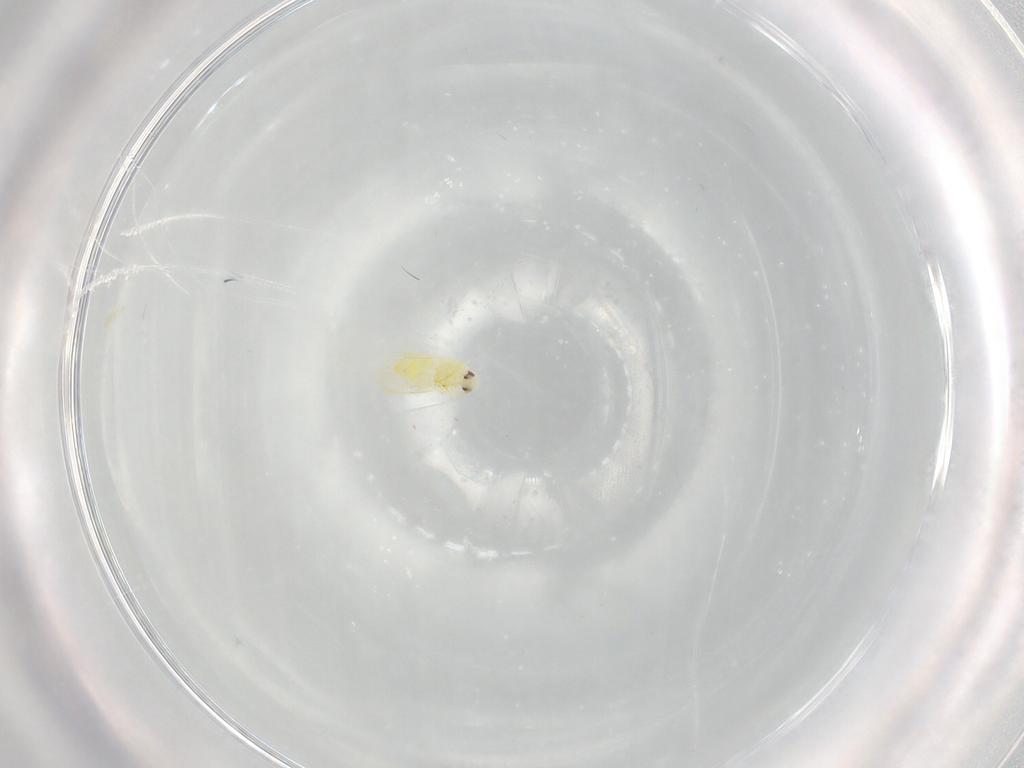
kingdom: Animalia
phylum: Arthropoda
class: Insecta
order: Hemiptera
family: Aleyrodidae
